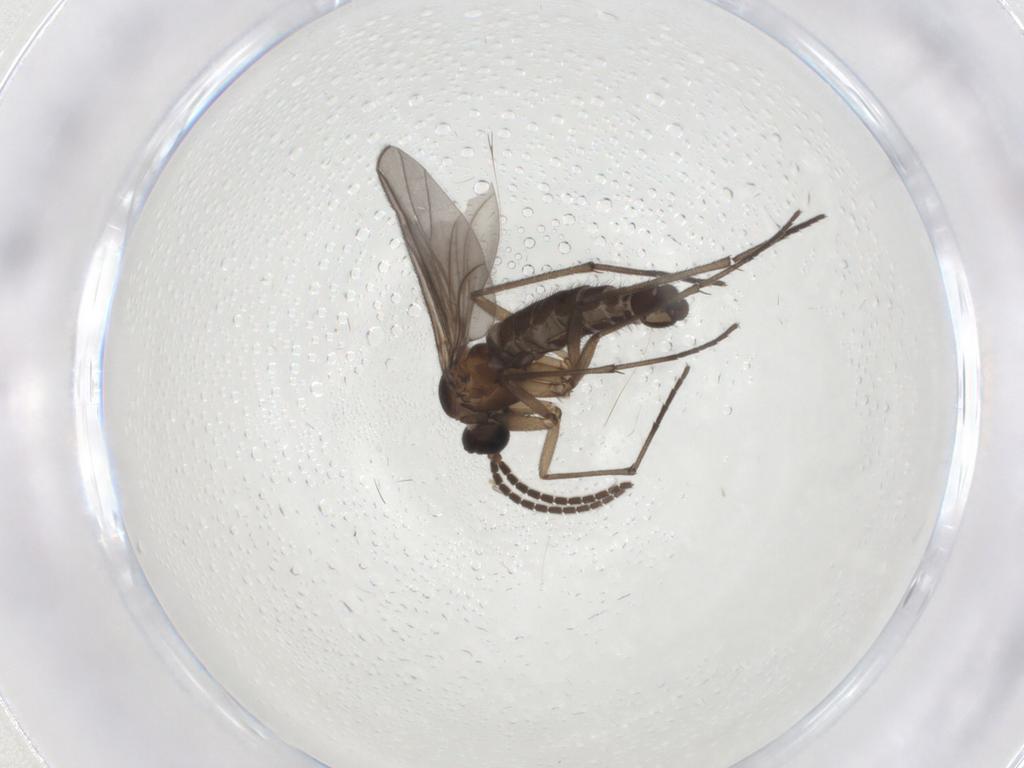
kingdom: Animalia
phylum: Arthropoda
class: Insecta
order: Diptera
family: Sciaridae
